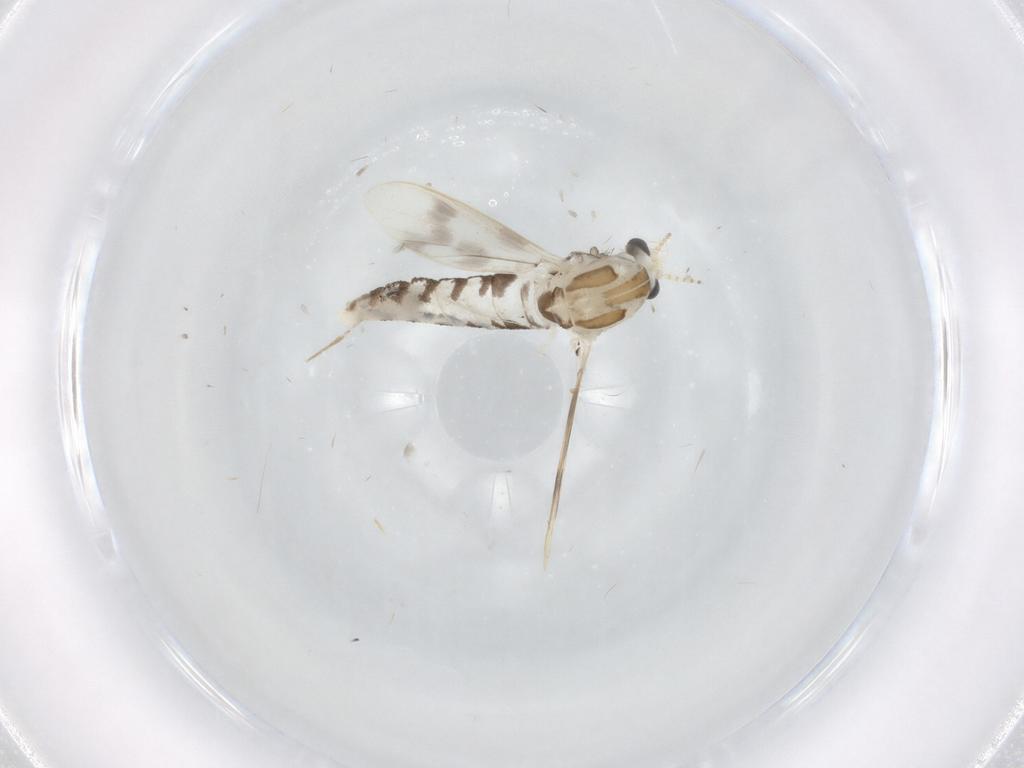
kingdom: Animalia
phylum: Arthropoda
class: Insecta
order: Diptera
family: Corethrellidae
